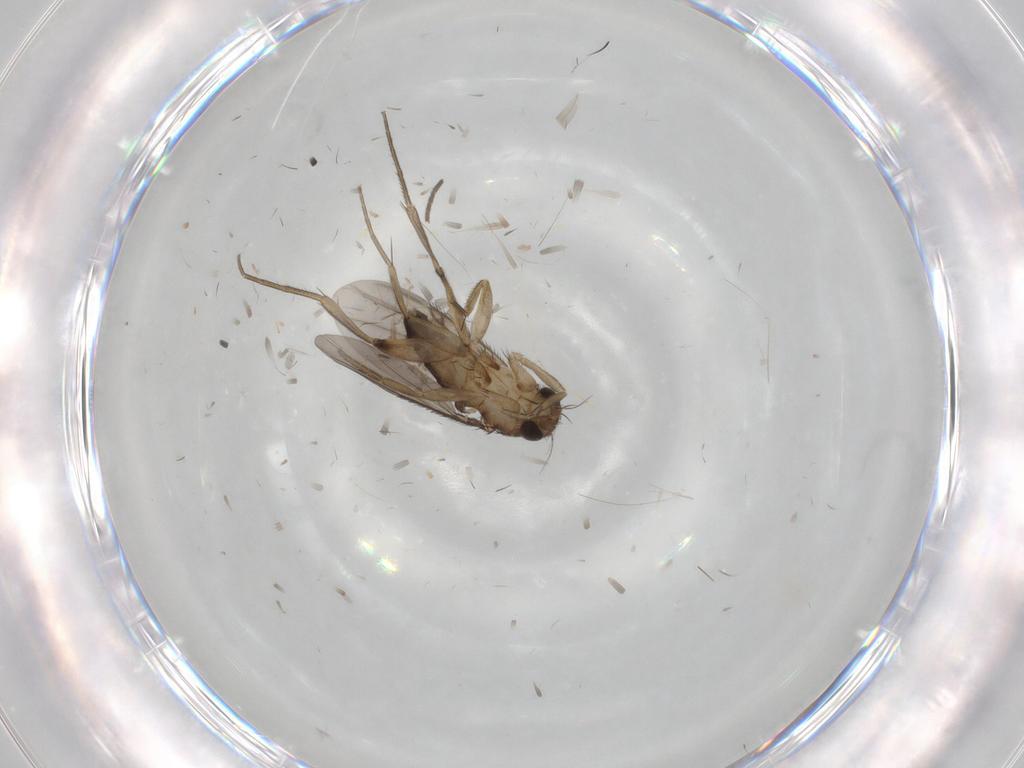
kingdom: Animalia
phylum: Arthropoda
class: Insecta
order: Diptera
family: Phoridae
